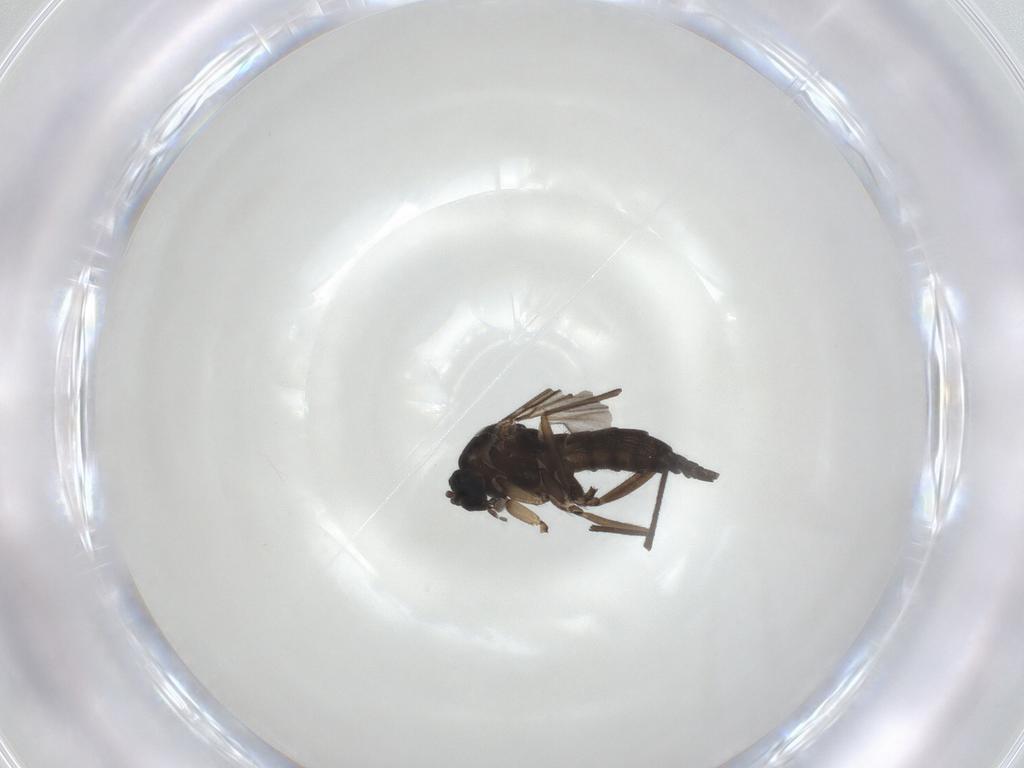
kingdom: Animalia
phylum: Arthropoda
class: Insecta
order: Diptera
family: Sciaridae
